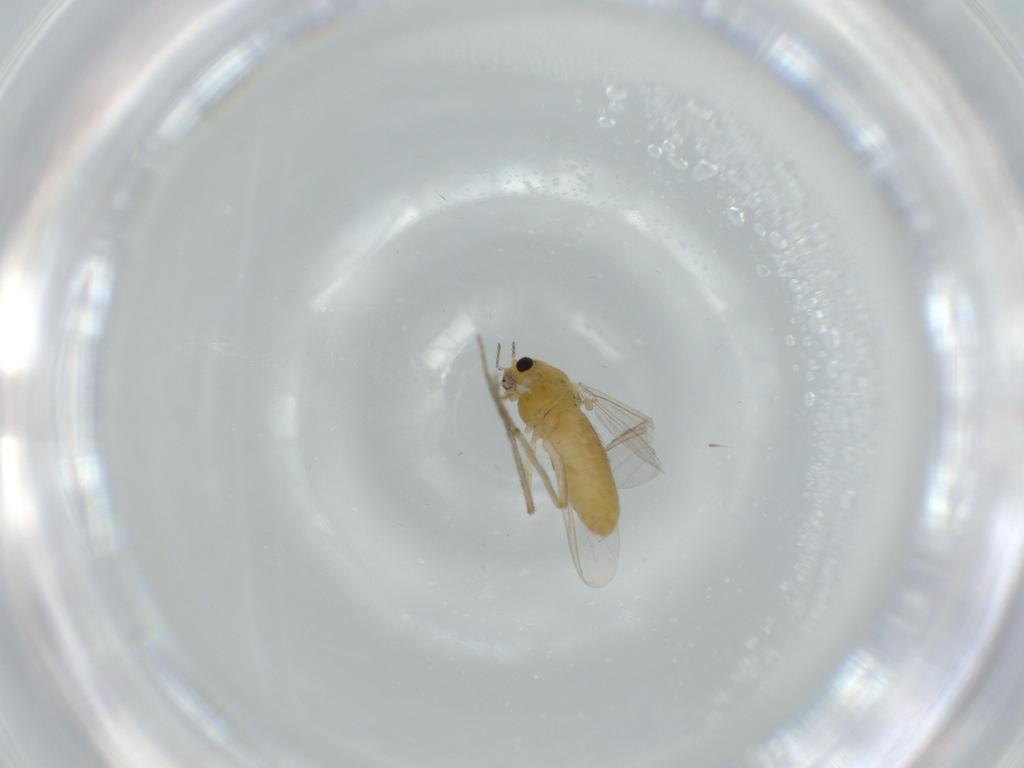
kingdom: Animalia
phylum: Arthropoda
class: Insecta
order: Diptera
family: Chironomidae
